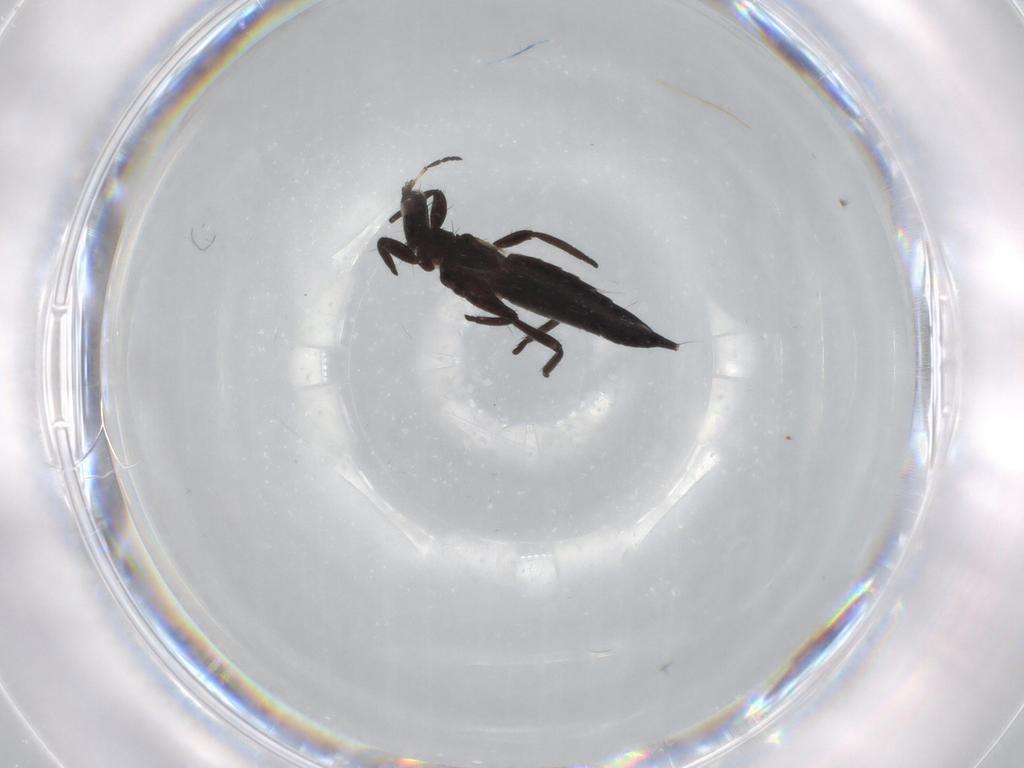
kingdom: Animalia
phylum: Arthropoda
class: Insecta
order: Thysanoptera
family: Phlaeothripidae
